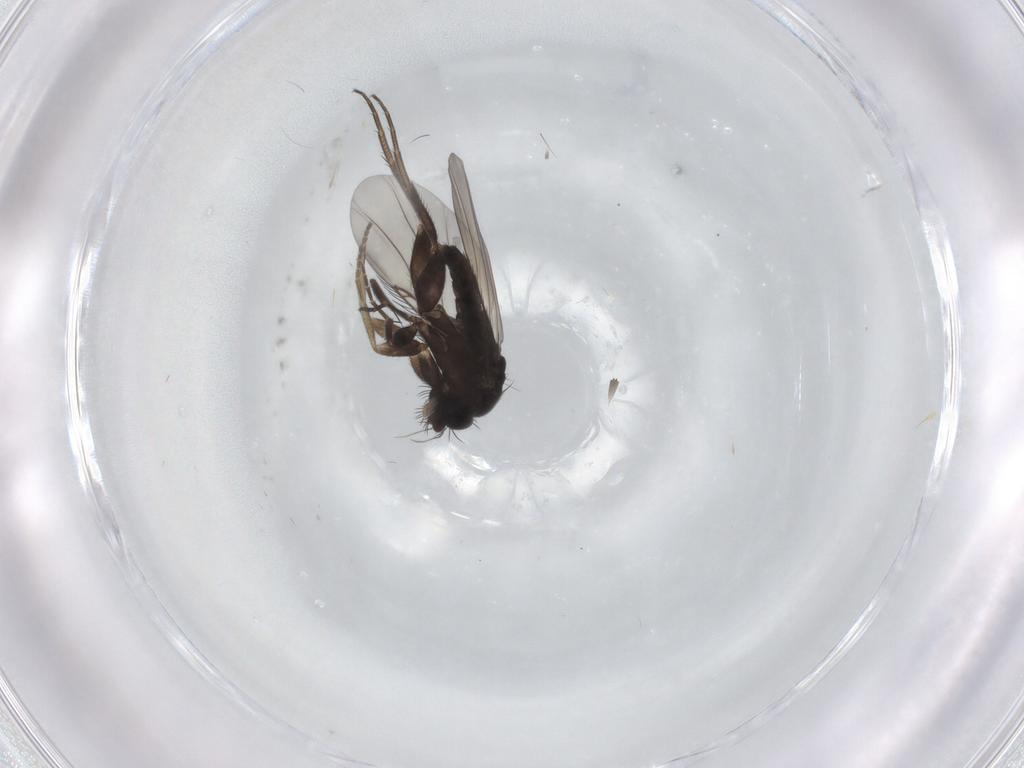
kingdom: Animalia
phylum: Arthropoda
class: Insecta
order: Diptera
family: Phoridae
